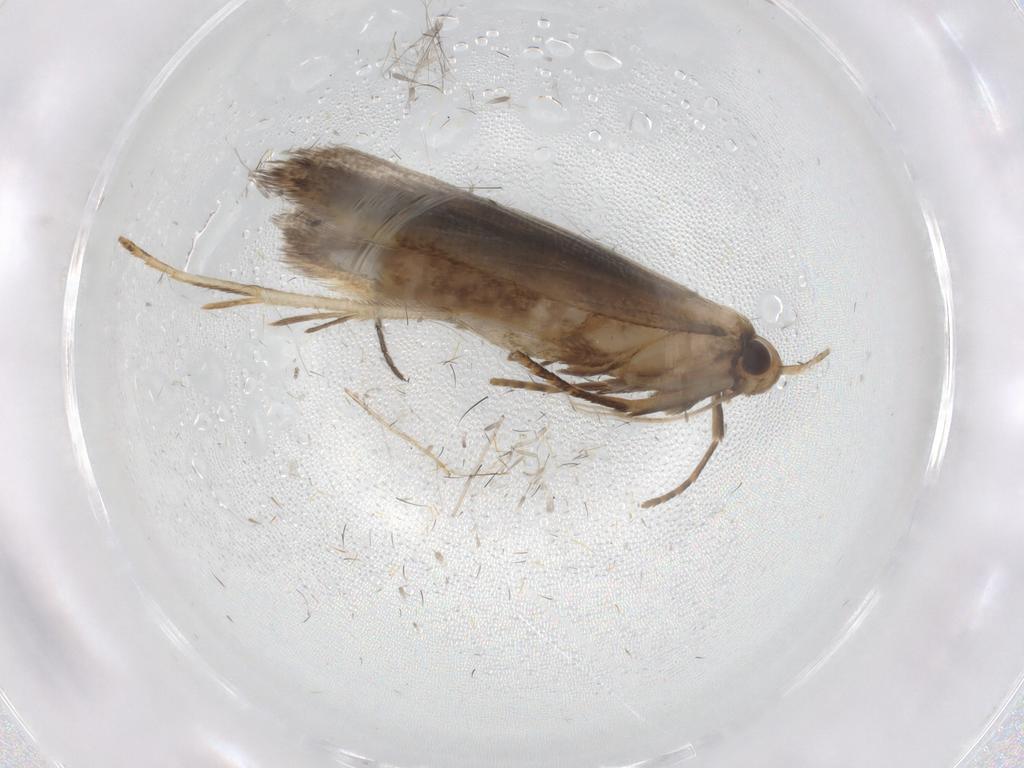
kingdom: Animalia
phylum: Arthropoda
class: Insecta
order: Lepidoptera
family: Gelechiidae
